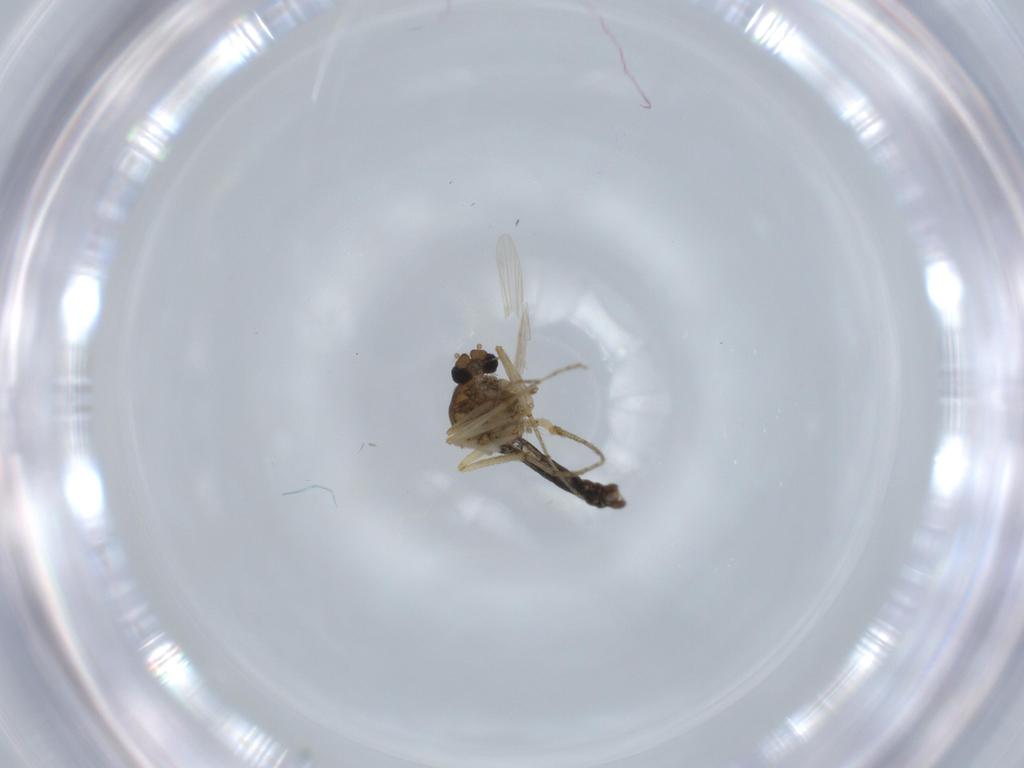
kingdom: Animalia
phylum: Arthropoda
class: Insecta
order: Diptera
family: Ceratopogonidae
